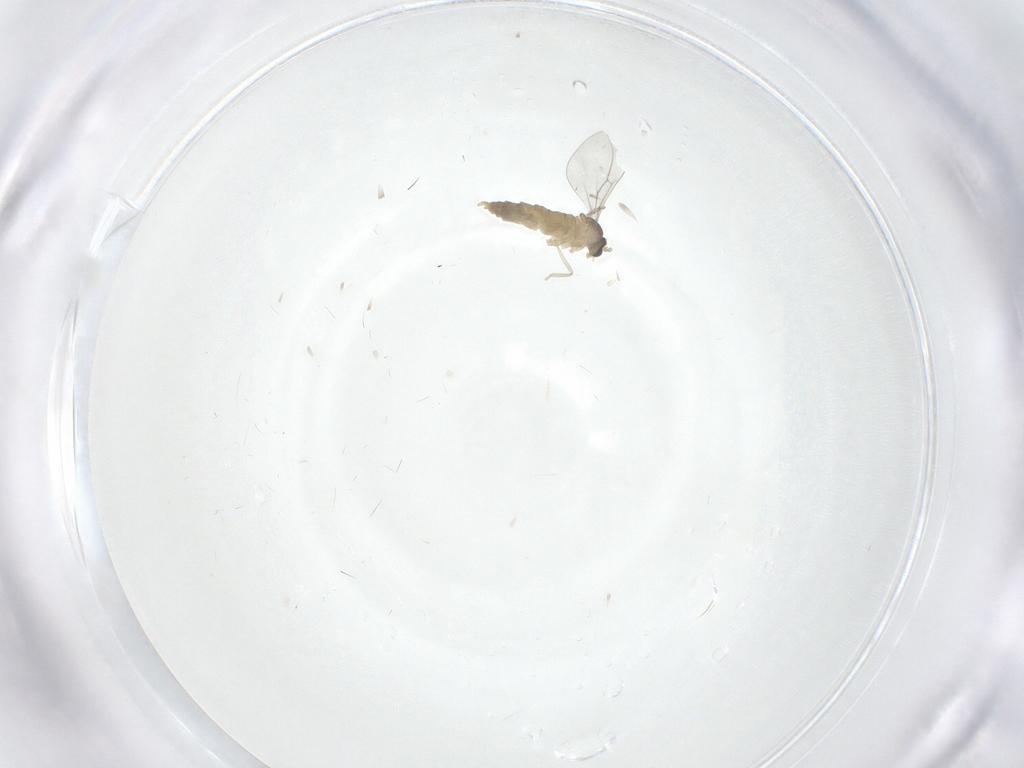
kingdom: Animalia
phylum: Arthropoda
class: Insecta
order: Diptera
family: Cecidomyiidae
